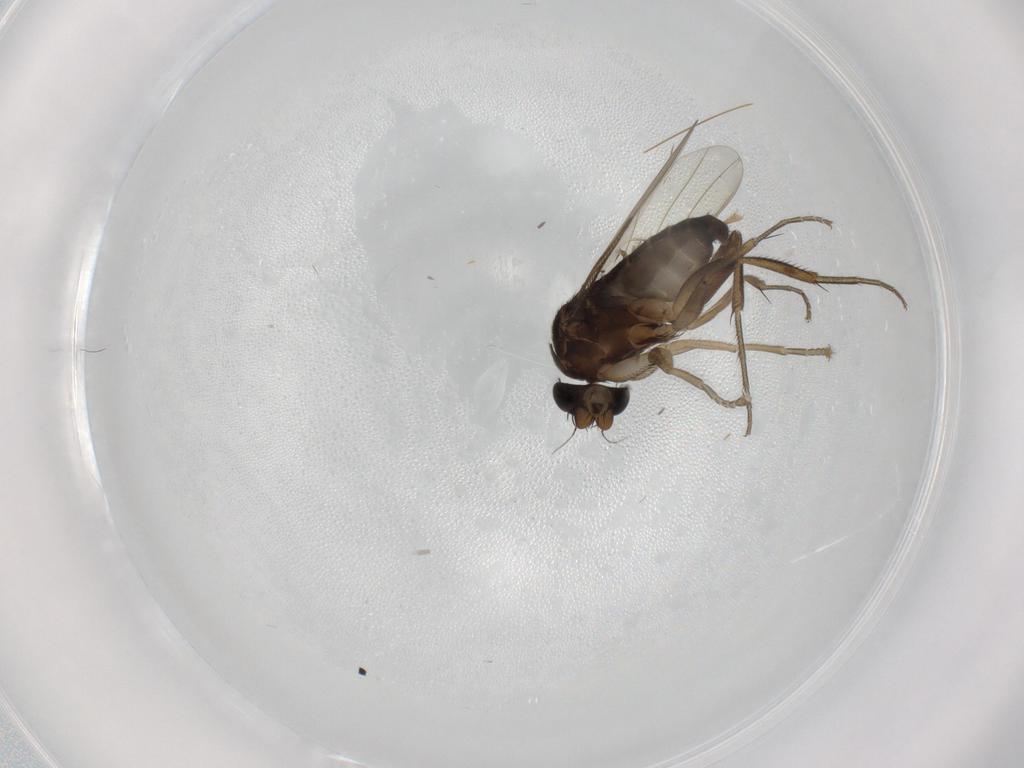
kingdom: Animalia
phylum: Arthropoda
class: Insecta
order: Diptera
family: Phoridae
